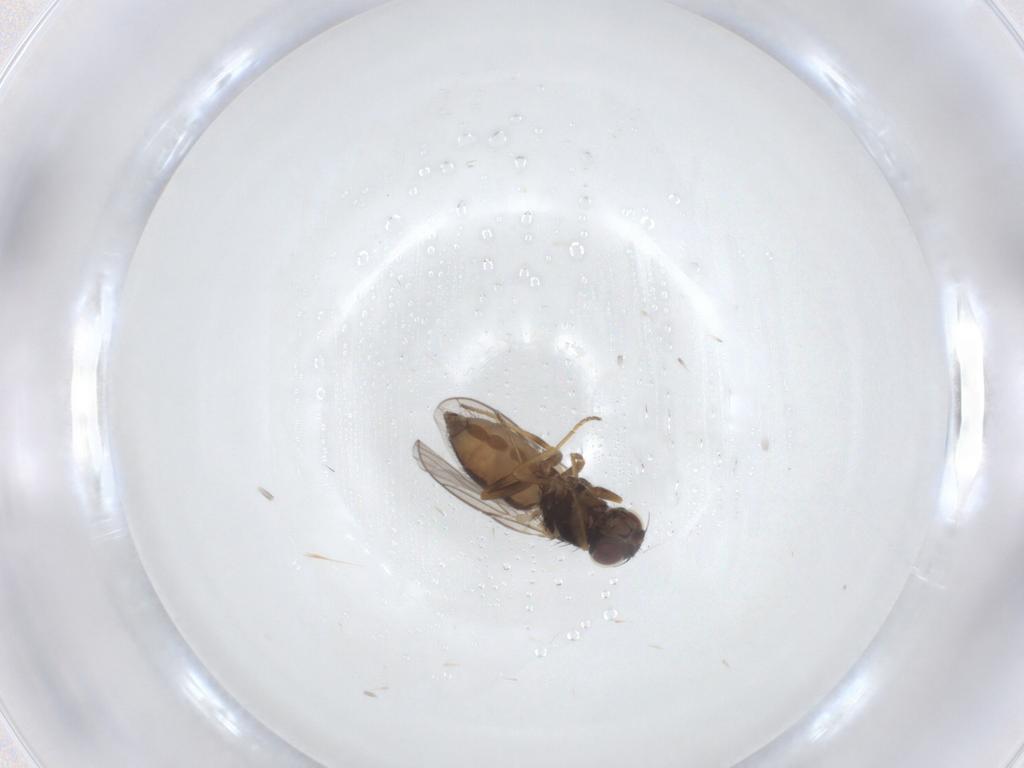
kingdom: Animalia
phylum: Arthropoda
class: Insecta
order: Diptera
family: Chloropidae
